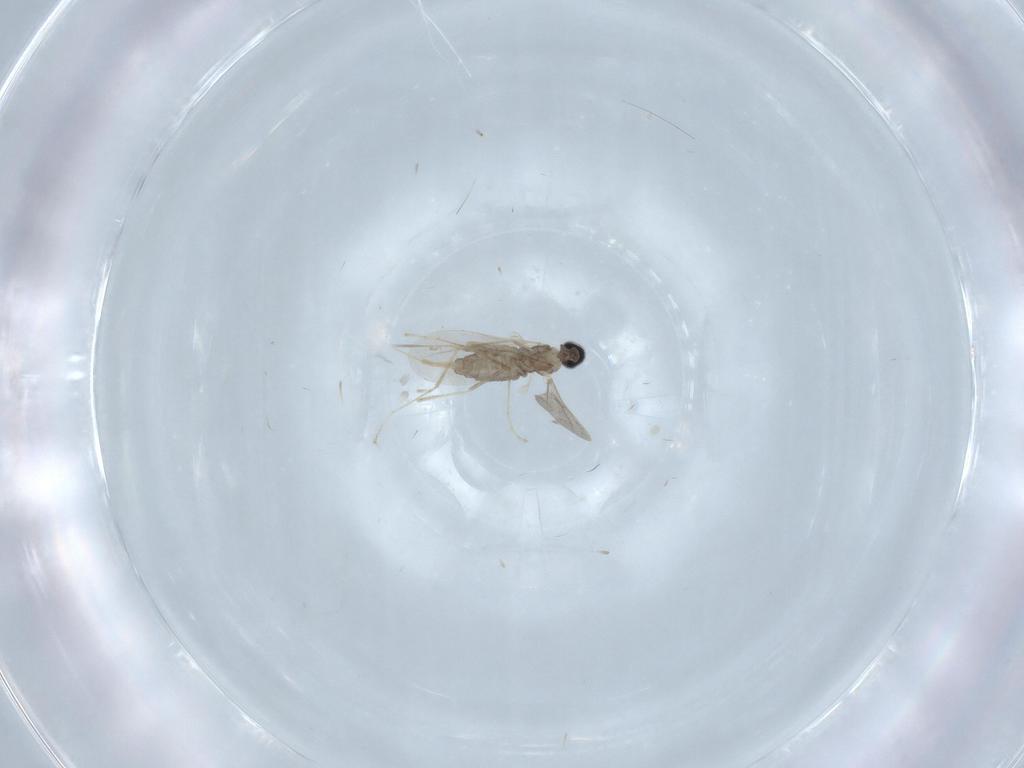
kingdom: Animalia
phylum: Arthropoda
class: Insecta
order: Diptera
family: Cecidomyiidae
